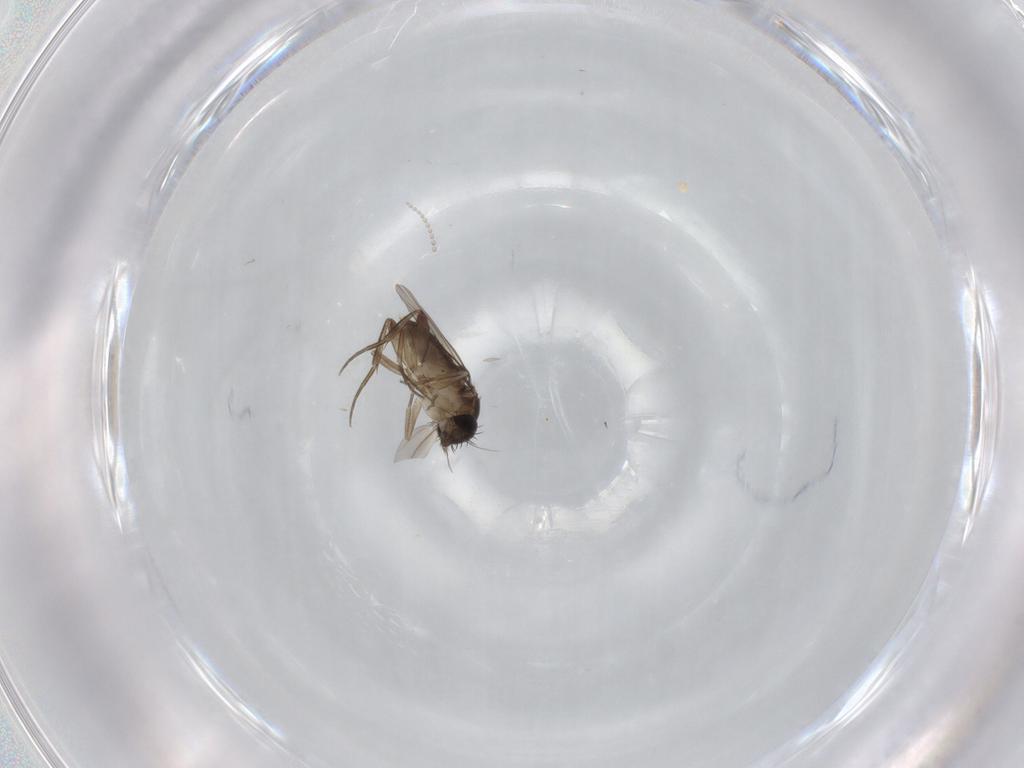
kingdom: Animalia
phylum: Arthropoda
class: Insecta
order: Diptera
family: Phoridae
